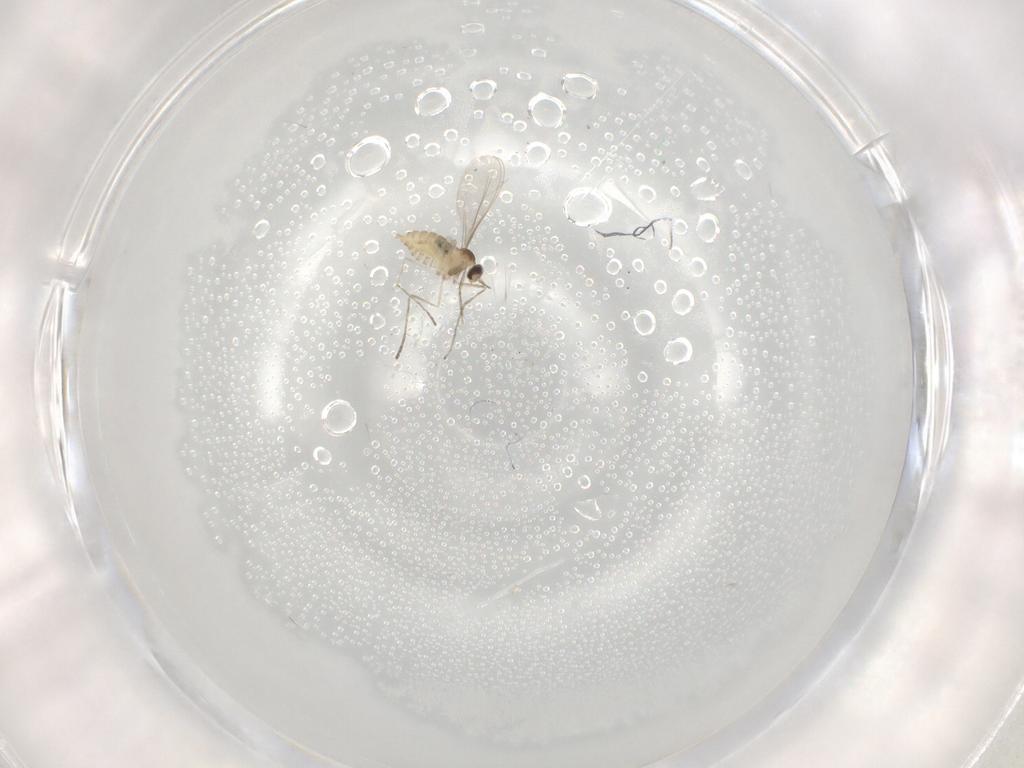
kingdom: Animalia
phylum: Arthropoda
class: Insecta
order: Diptera
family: Cecidomyiidae
